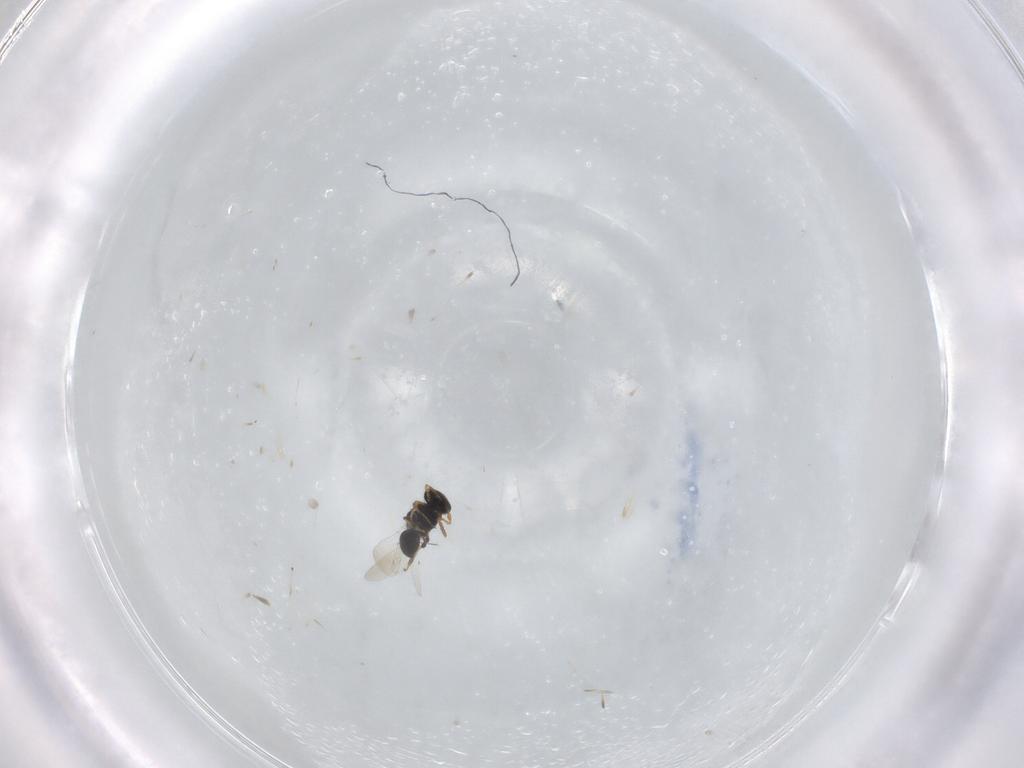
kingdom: Animalia
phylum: Arthropoda
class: Insecta
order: Hymenoptera
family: Platygastridae
